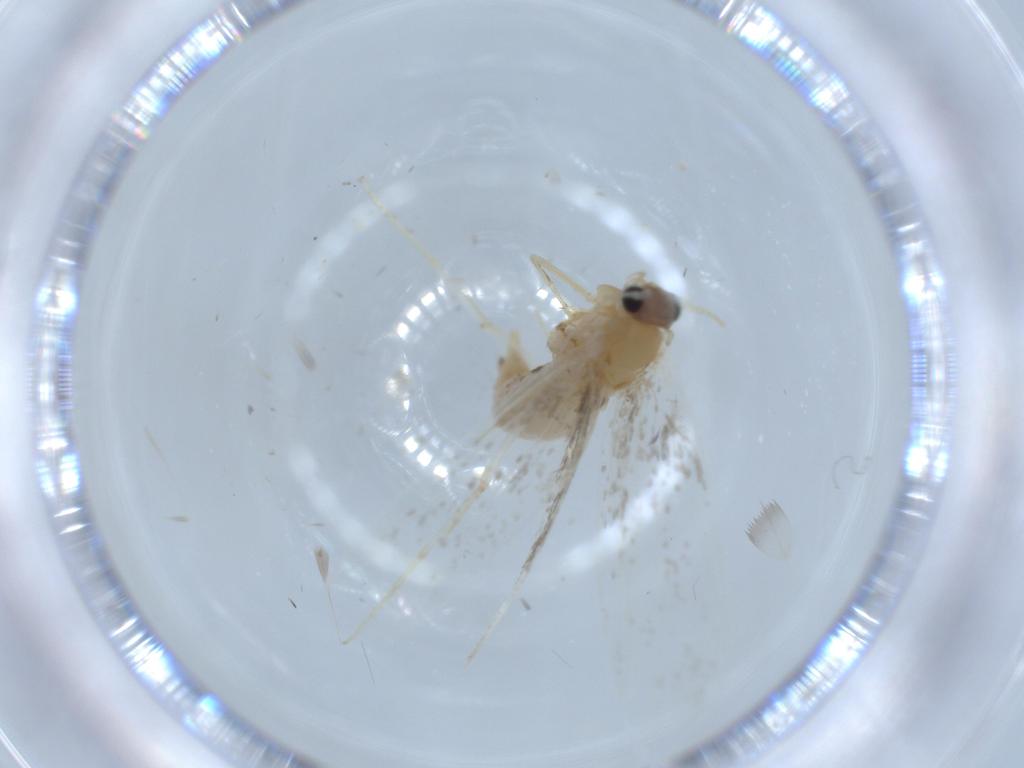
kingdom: Animalia
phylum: Arthropoda
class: Insecta
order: Lepidoptera
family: Tineidae
